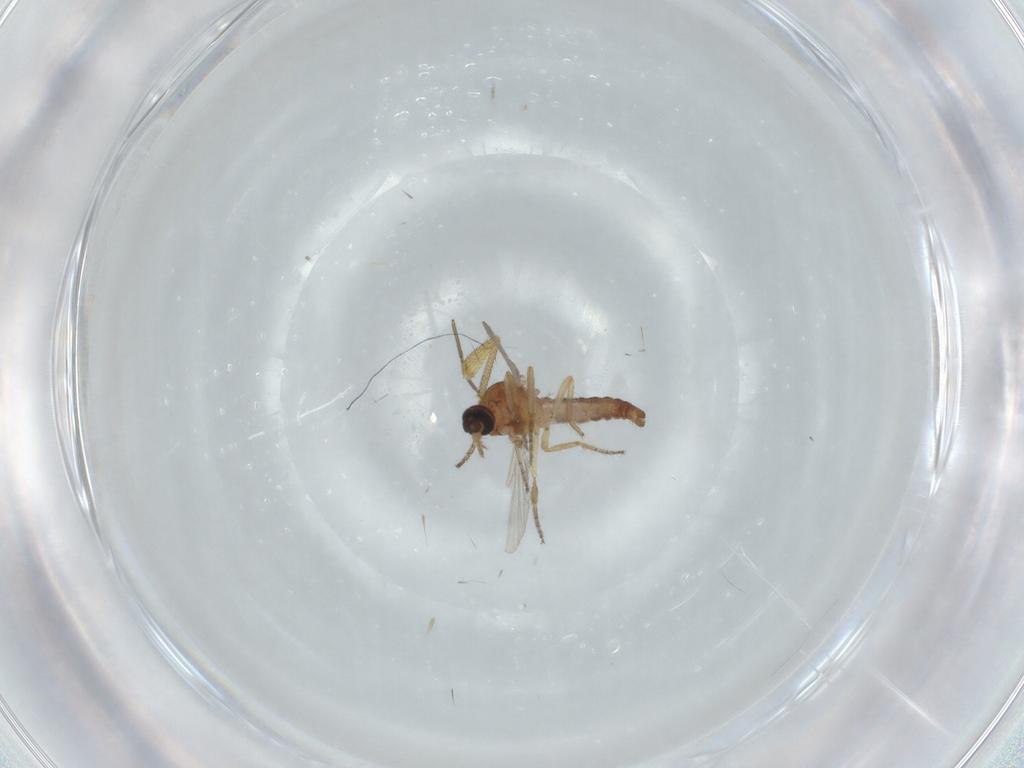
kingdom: Animalia
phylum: Arthropoda
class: Insecta
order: Diptera
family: Ceratopogonidae
